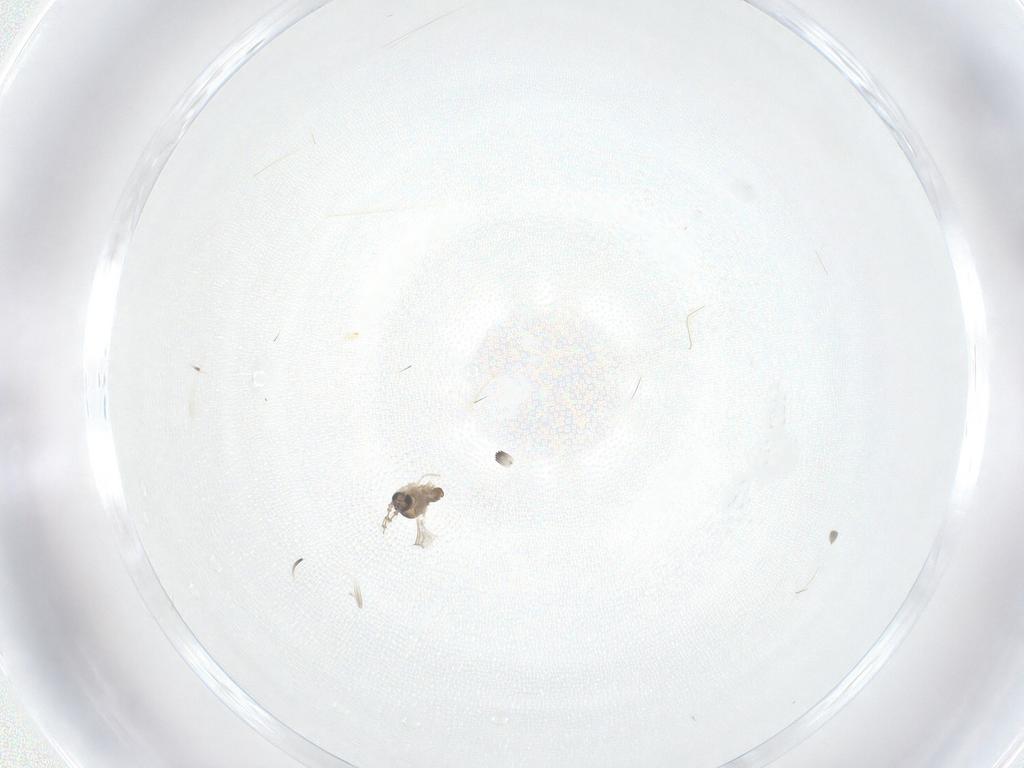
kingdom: Animalia
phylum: Arthropoda
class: Insecta
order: Diptera
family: Cecidomyiidae
